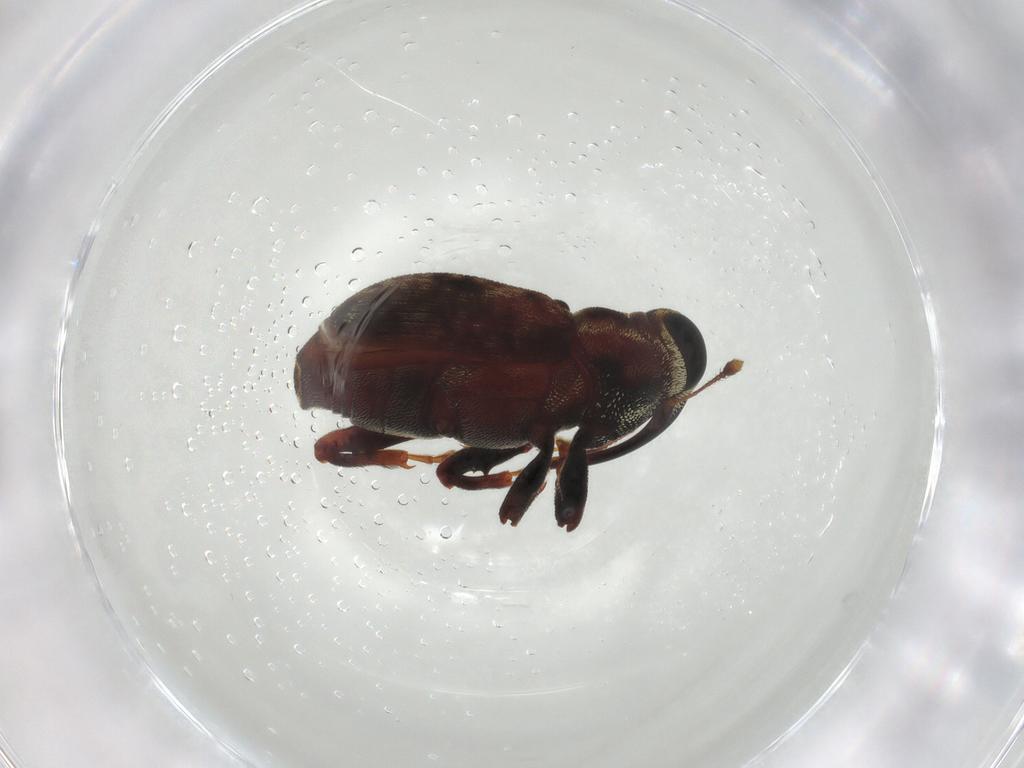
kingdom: Animalia
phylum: Arthropoda
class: Insecta
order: Coleoptera
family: Curculionidae
